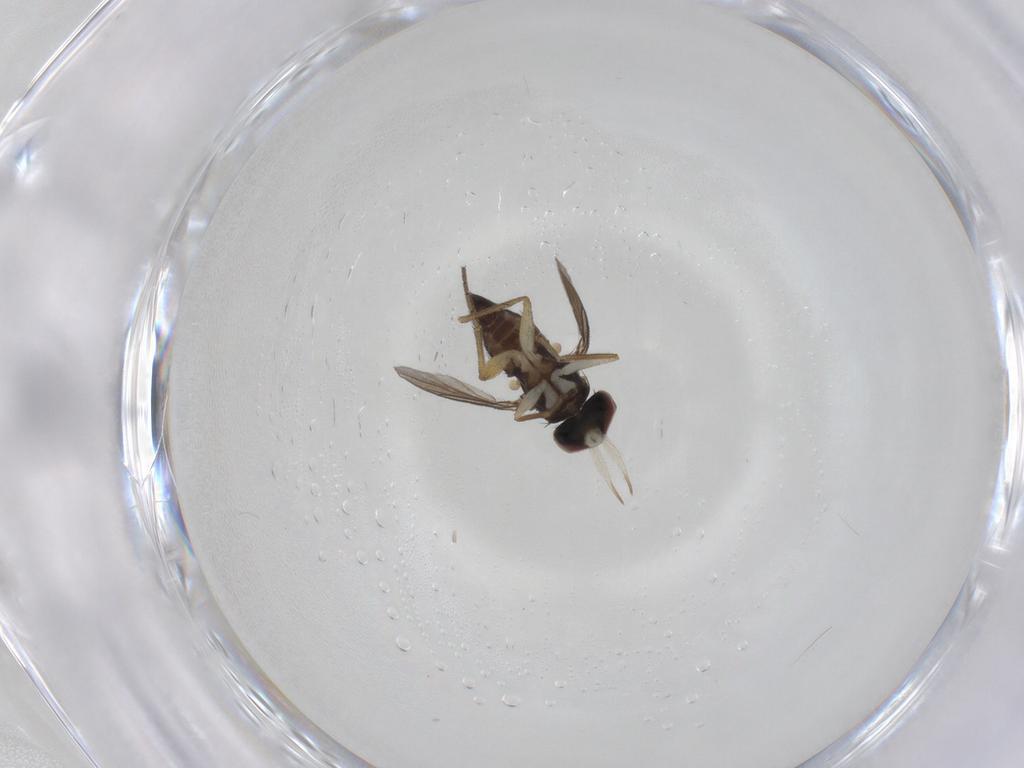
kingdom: Animalia
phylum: Arthropoda
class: Insecta
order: Diptera
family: Dolichopodidae
